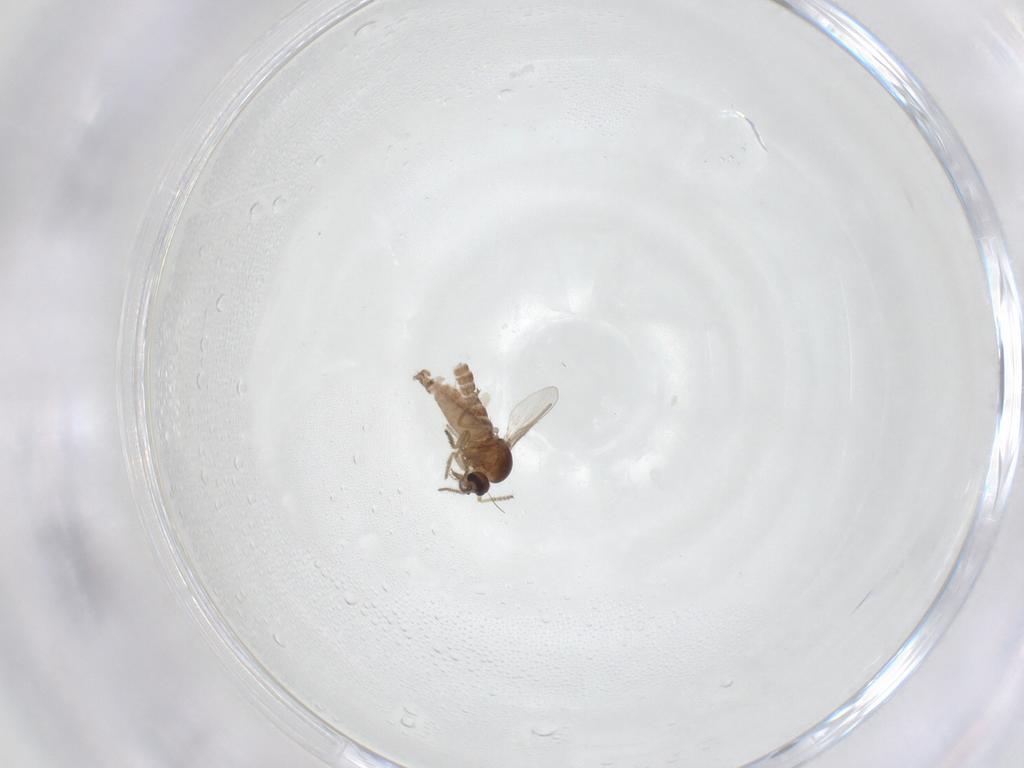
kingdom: Animalia
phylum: Arthropoda
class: Insecta
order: Diptera
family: Ceratopogonidae
